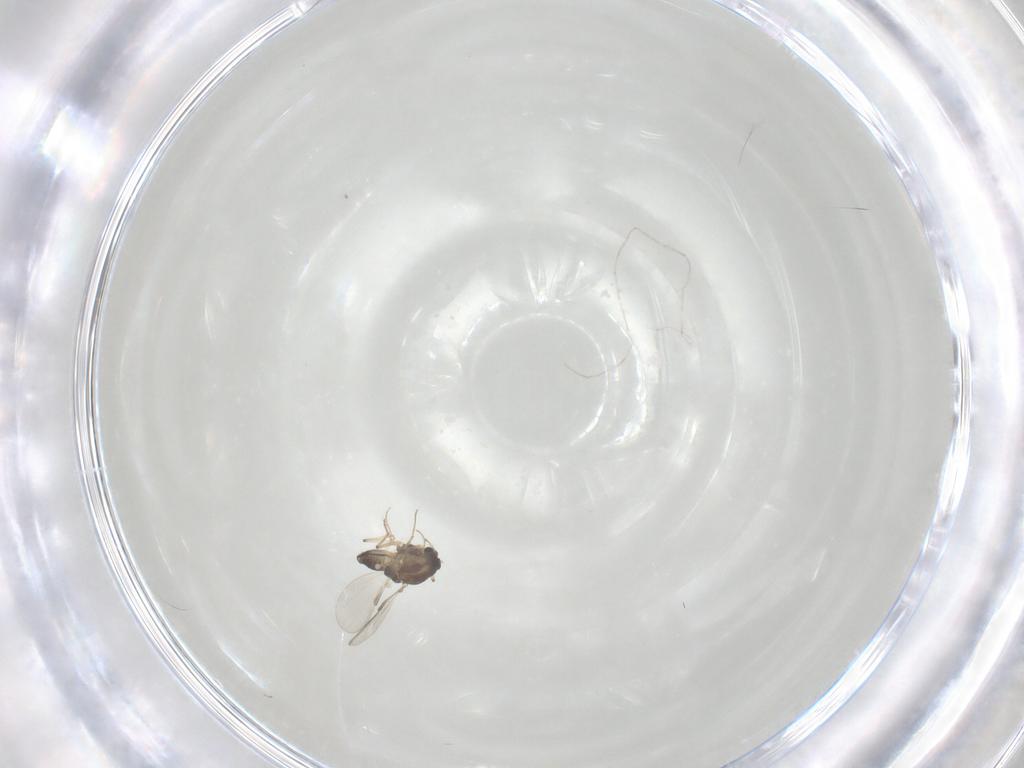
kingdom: Animalia
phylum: Arthropoda
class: Insecta
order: Diptera
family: Chironomidae
